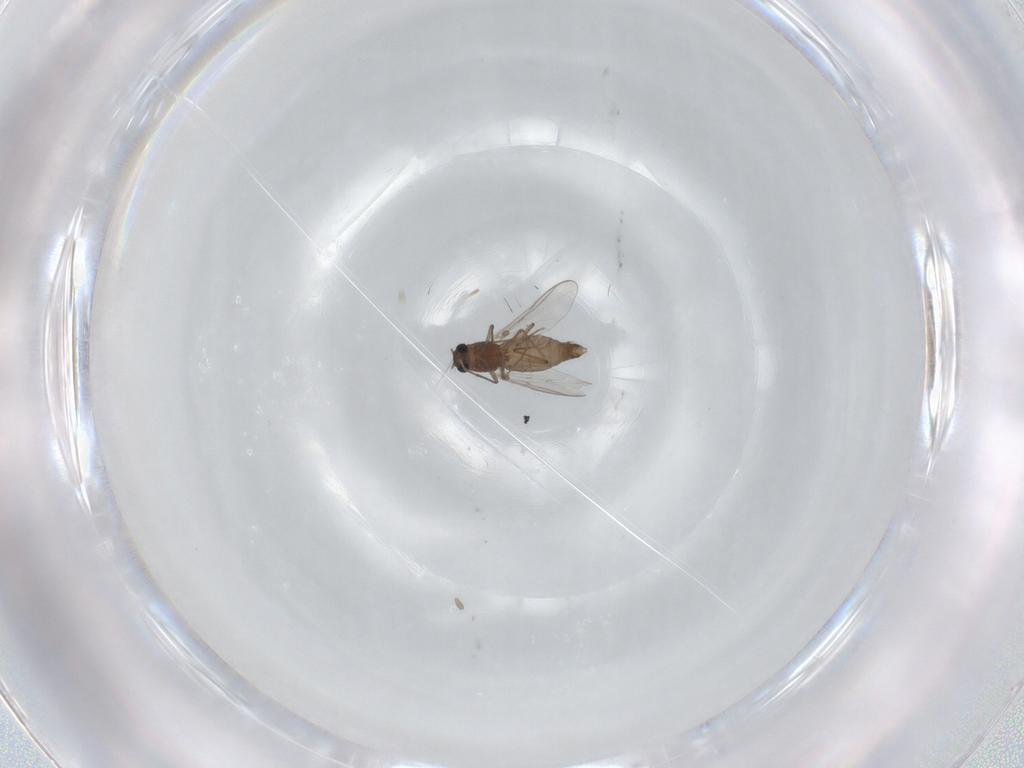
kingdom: Animalia
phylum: Arthropoda
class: Insecta
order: Diptera
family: Chironomidae
